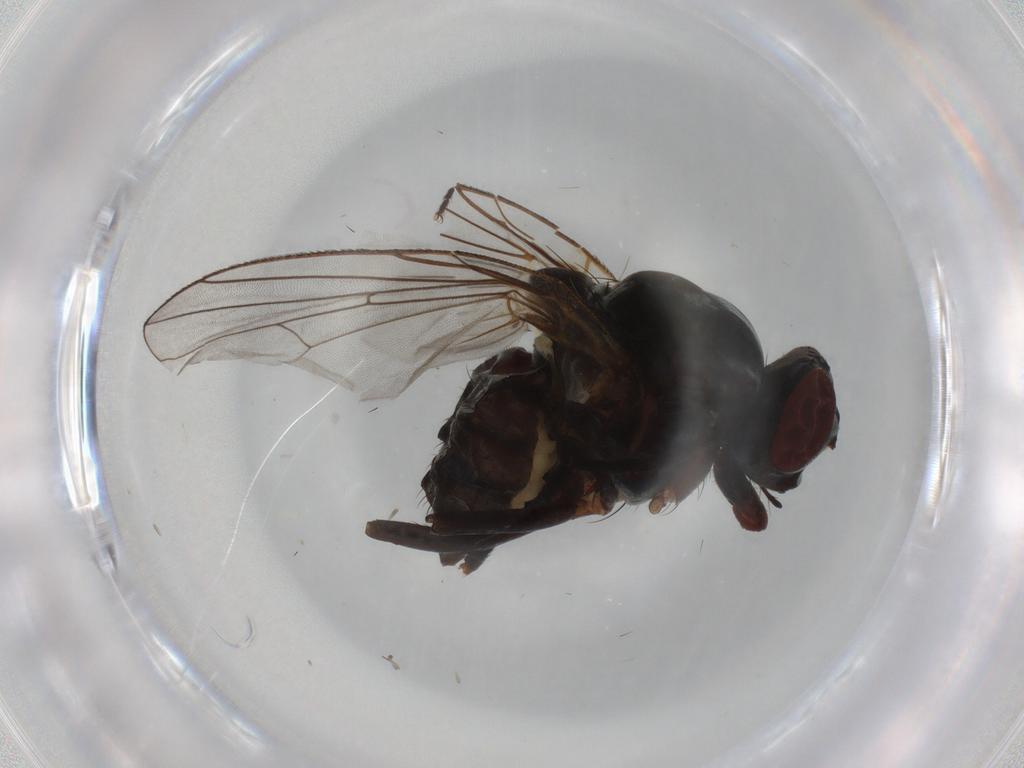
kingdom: Animalia
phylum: Arthropoda
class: Insecta
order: Diptera
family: Anthomyiidae
